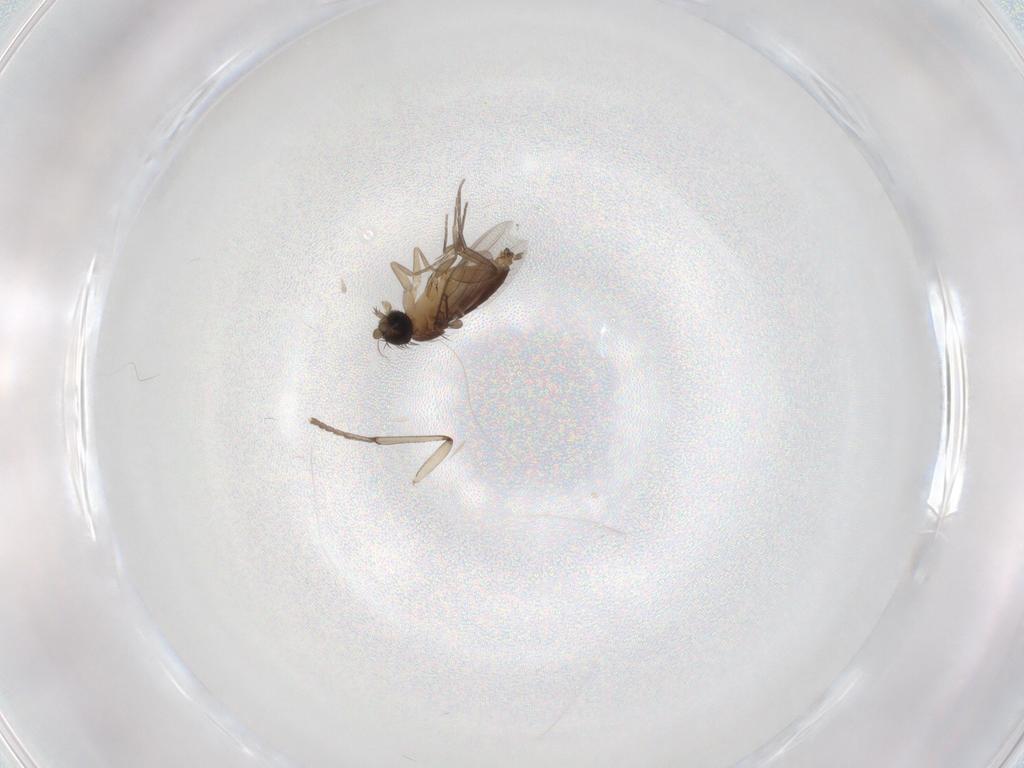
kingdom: Animalia
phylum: Arthropoda
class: Insecta
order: Diptera
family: Phoridae
